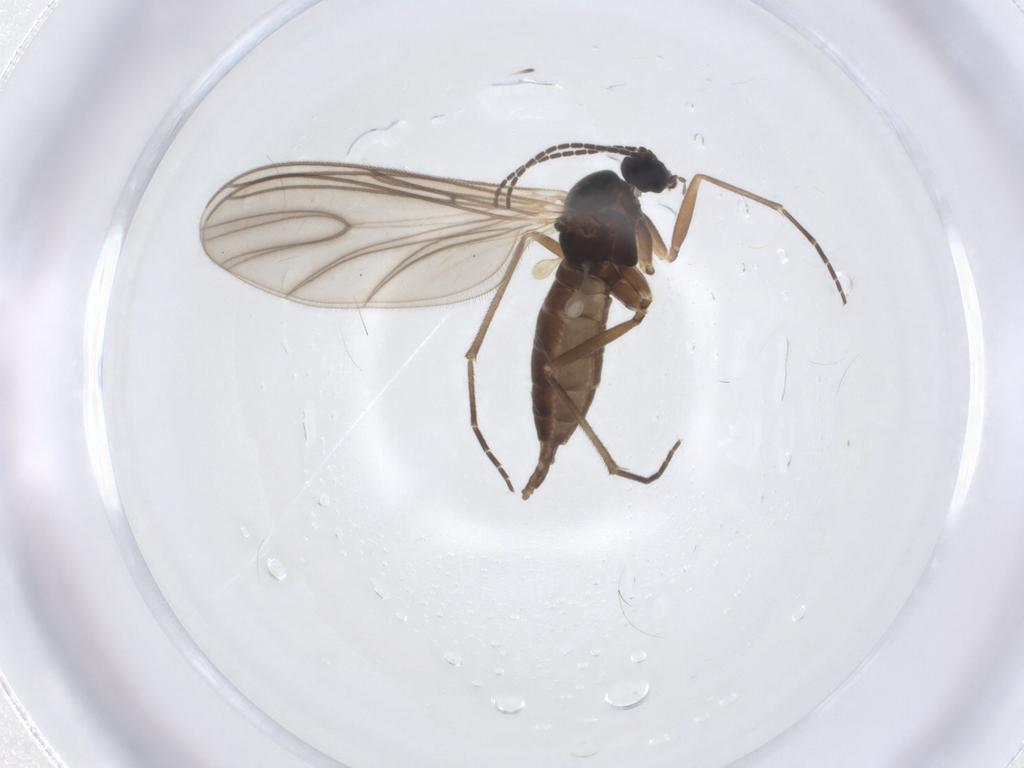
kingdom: Animalia
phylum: Arthropoda
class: Insecta
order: Diptera
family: Sciaridae
